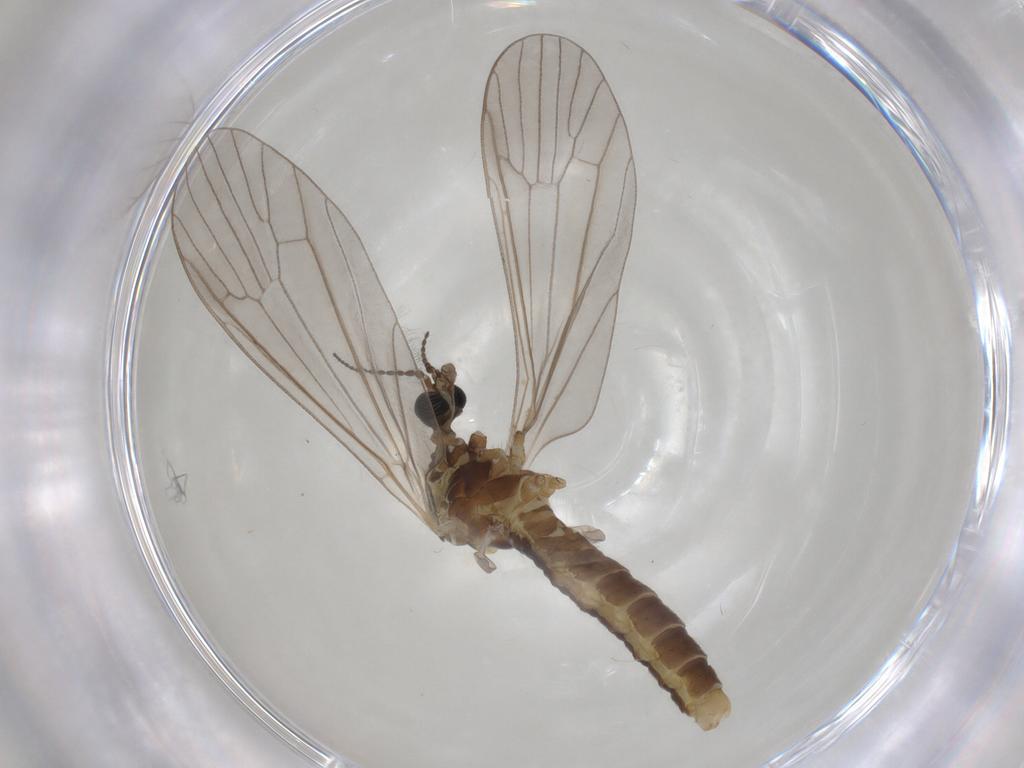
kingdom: Animalia
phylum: Arthropoda
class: Insecta
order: Diptera
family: Limoniidae
